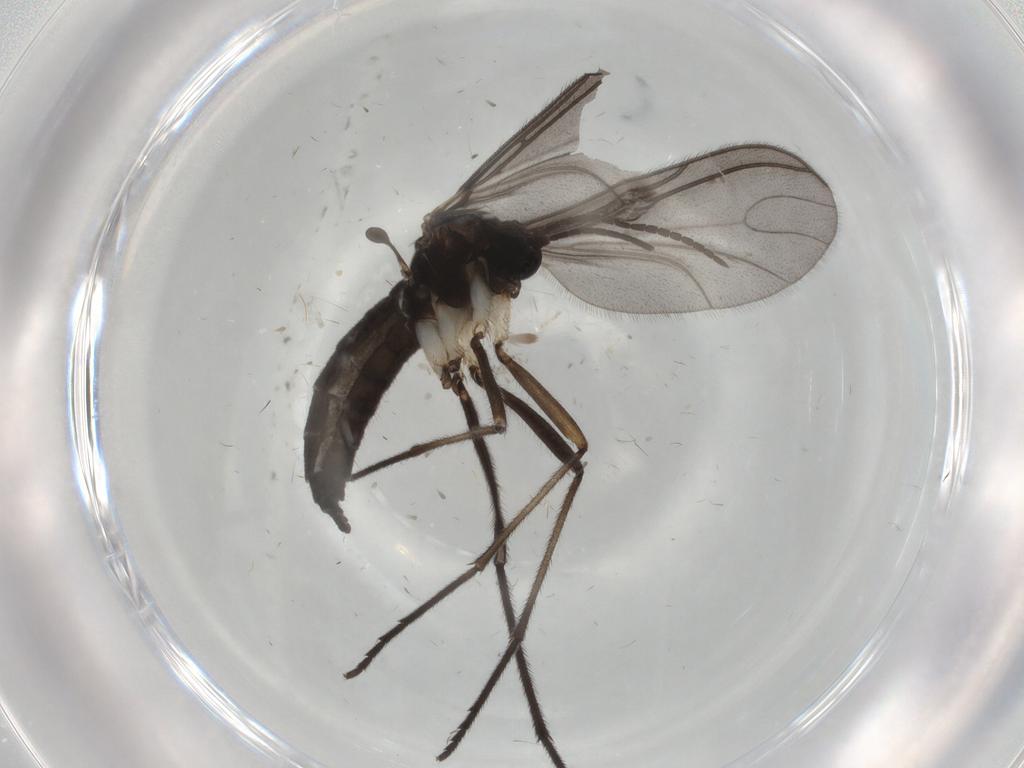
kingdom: Animalia
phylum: Arthropoda
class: Insecta
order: Diptera
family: Sciaridae
